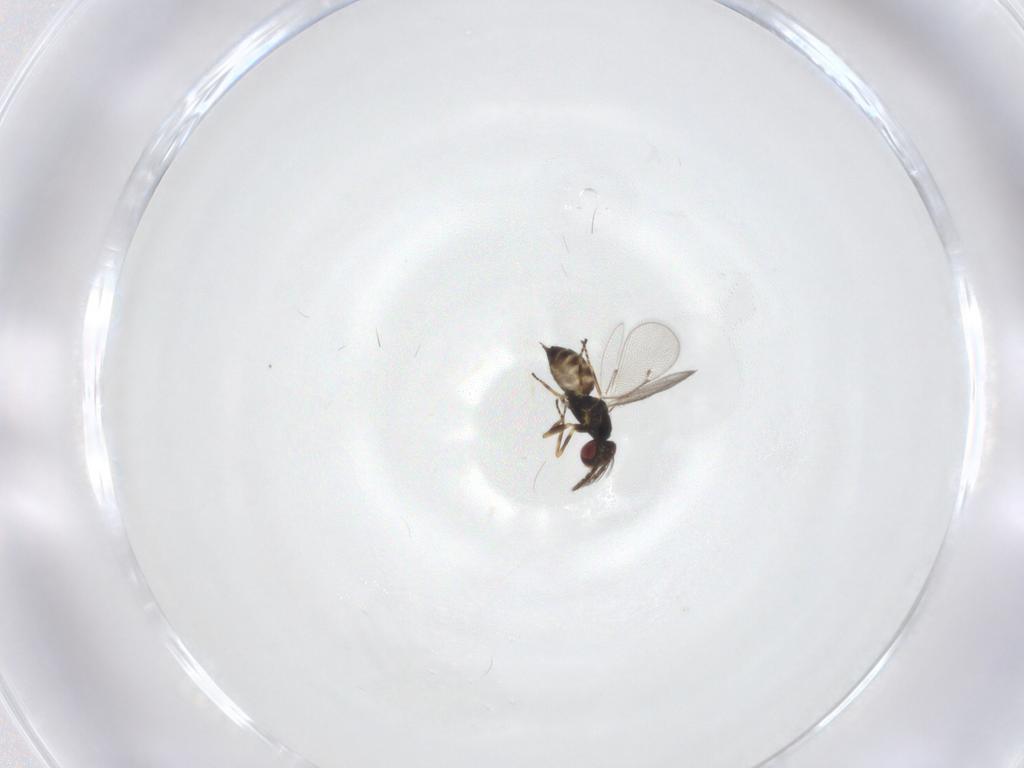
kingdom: Animalia
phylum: Arthropoda
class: Insecta
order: Hymenoptera
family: Eulophidae
